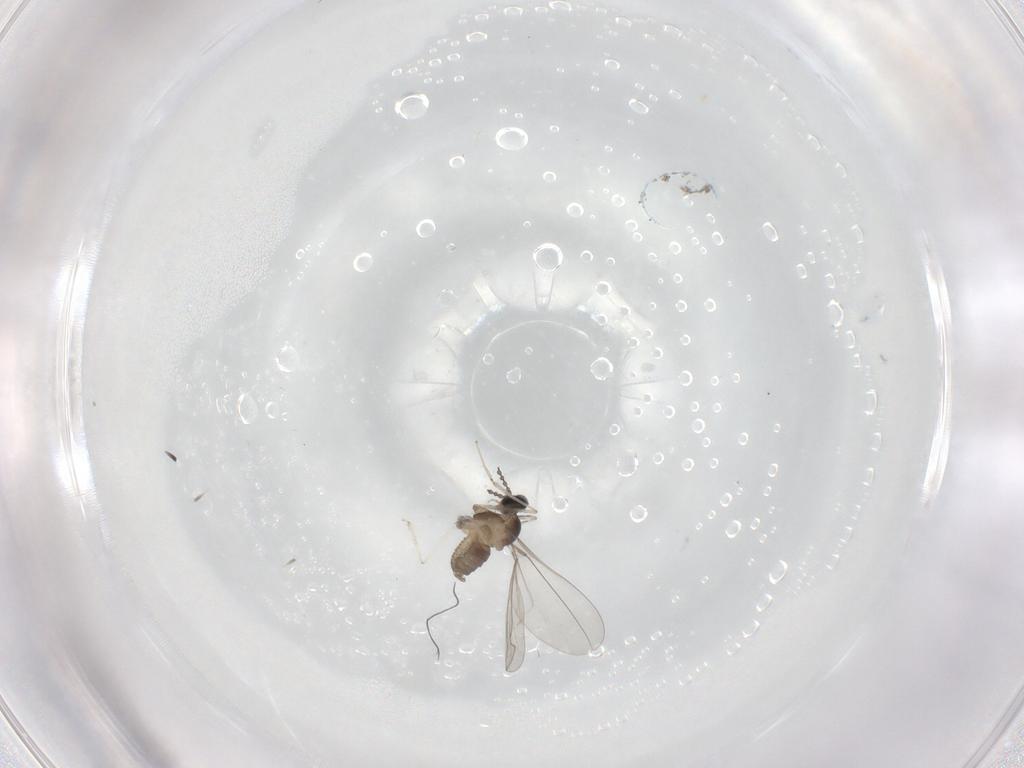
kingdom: Animalia
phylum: Arthropoda
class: Insecta
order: Diptera
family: Cecidomyiidae
